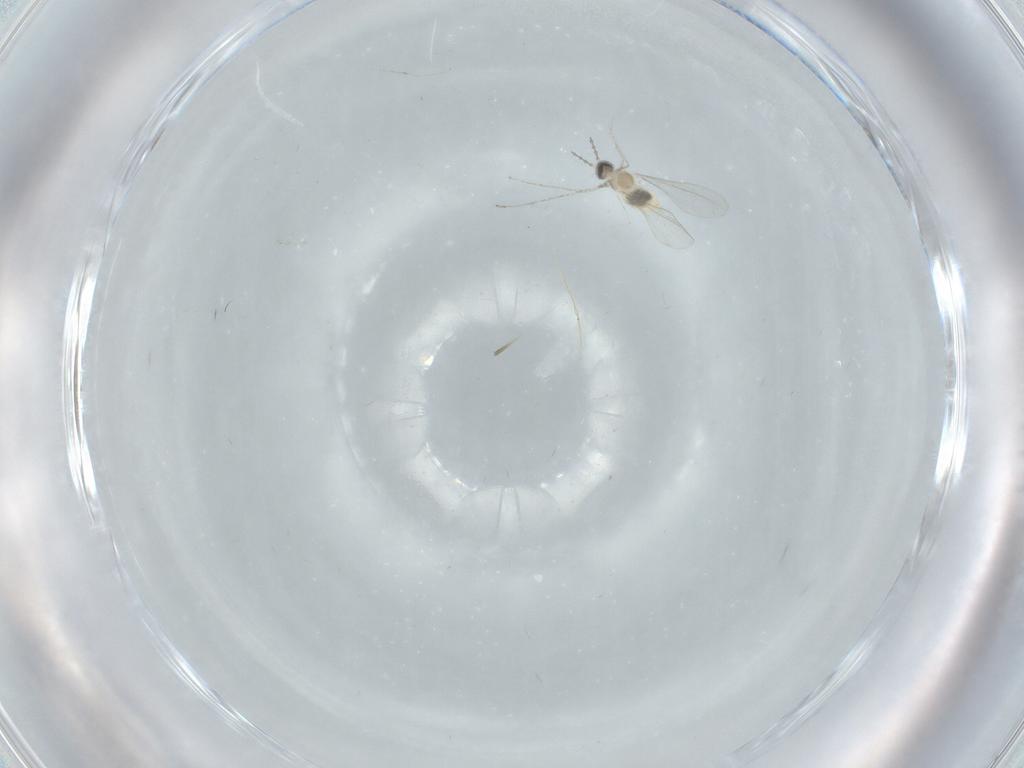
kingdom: Animalia
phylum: Arthropoda
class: Insecta
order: Diptera
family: Cecidomyiidae
